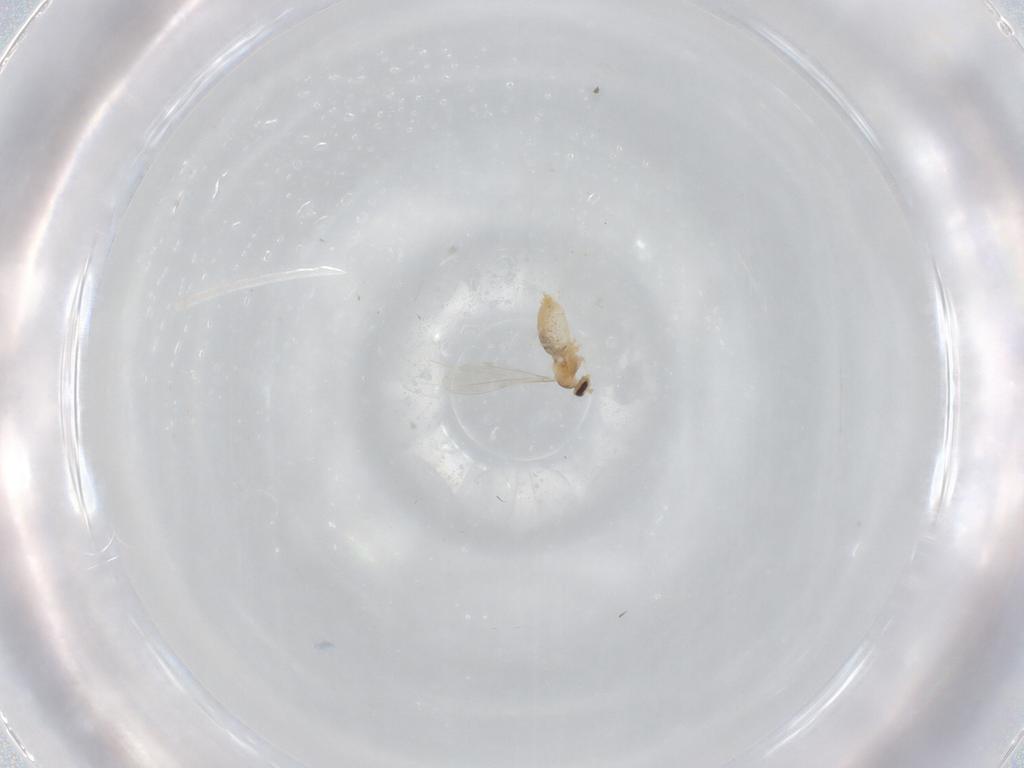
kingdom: Animalia
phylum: Arthropoda
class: Insecta
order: Diptera
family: Cecidomyiidae
